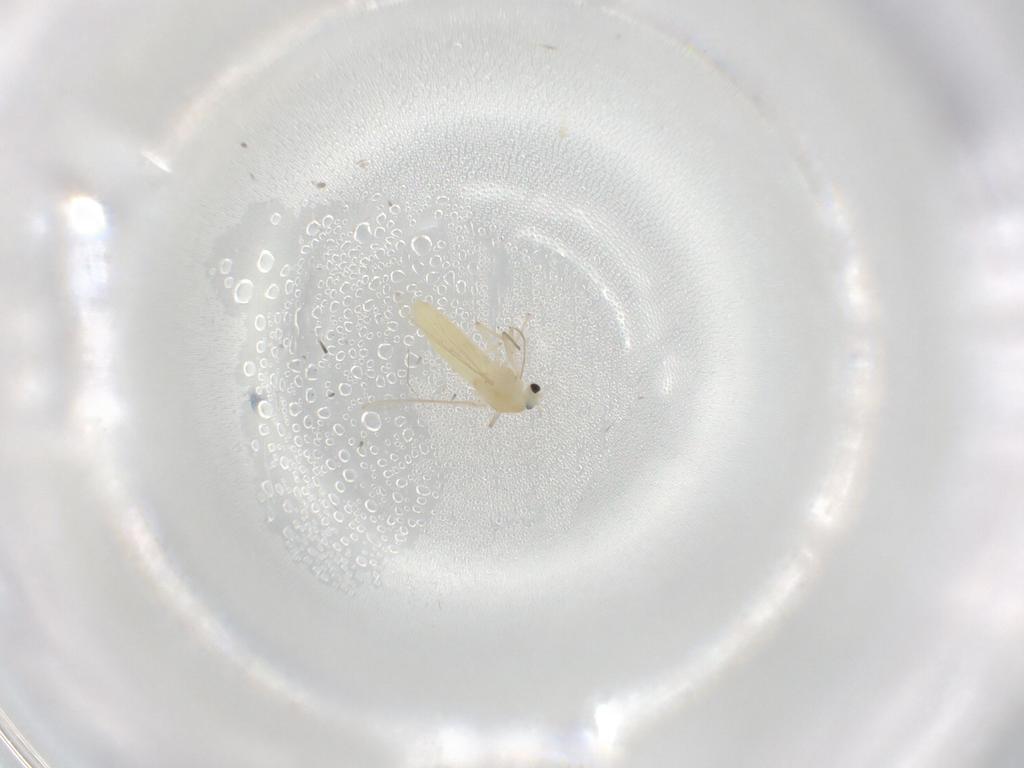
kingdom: Animalia
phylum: Arthropoda
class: Insecta
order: Diptera
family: Chironomidae
